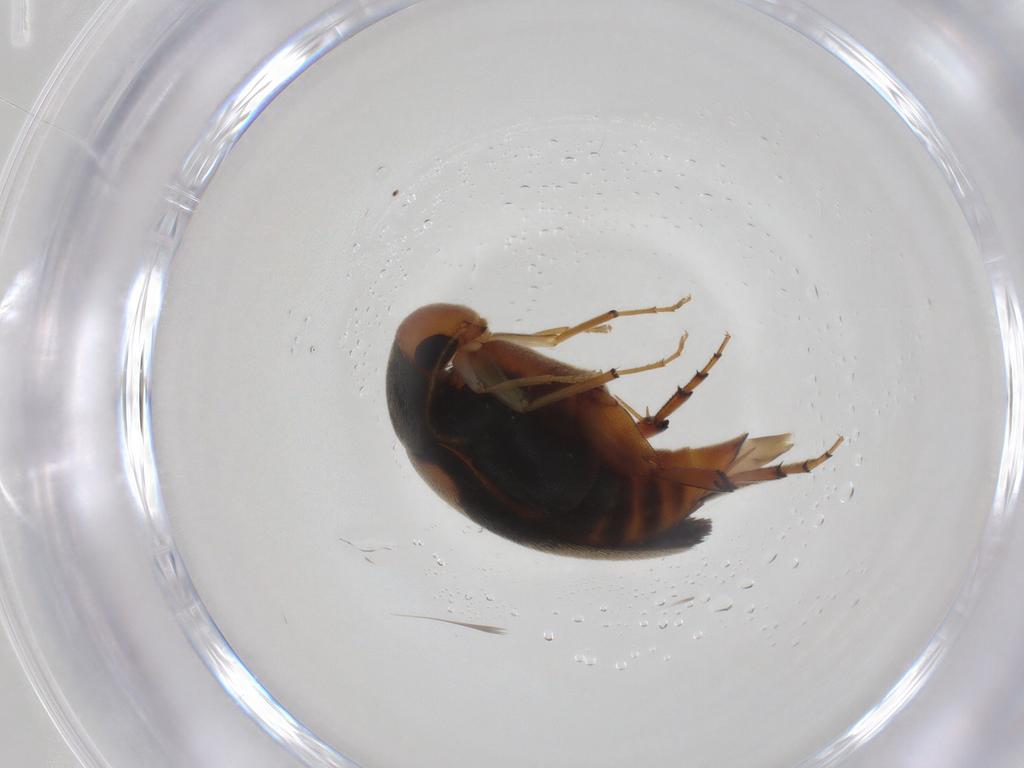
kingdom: Animalia
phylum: Arthropoda
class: Insecta
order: Coleoptera
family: Mordellidae
